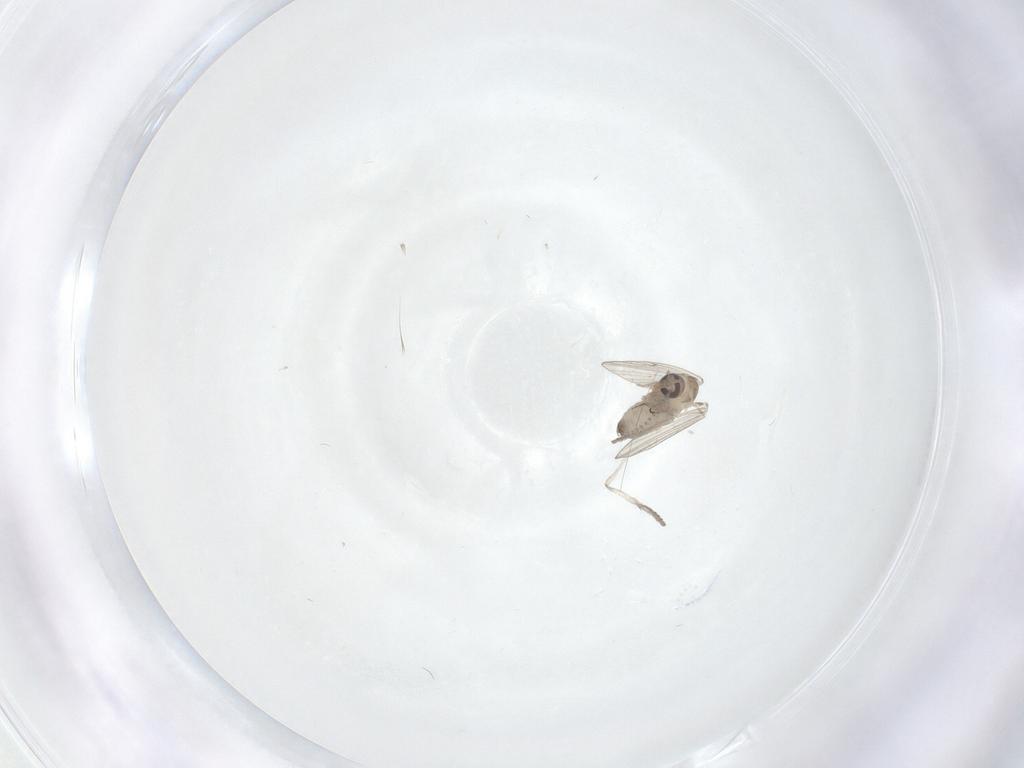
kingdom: Animalia
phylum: Arthropoda
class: Insecta
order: Diptera
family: Psychodidae
